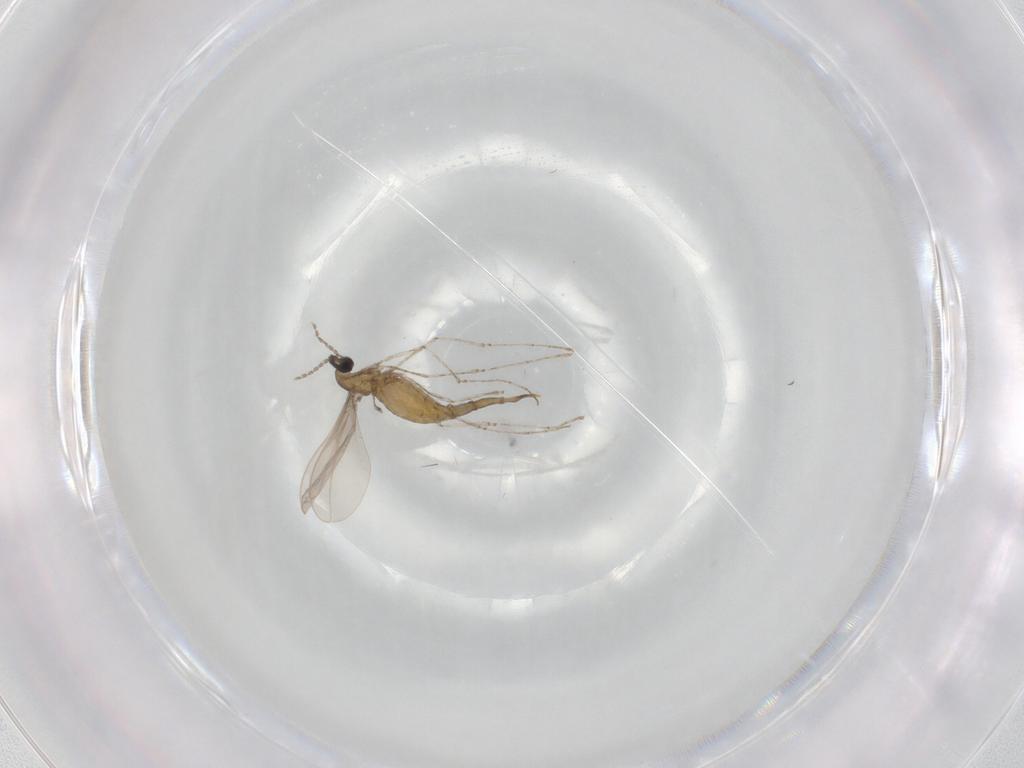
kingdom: Animalia
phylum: Arthropoda
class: Insecta
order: Diptera
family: Cecidomyiidae
